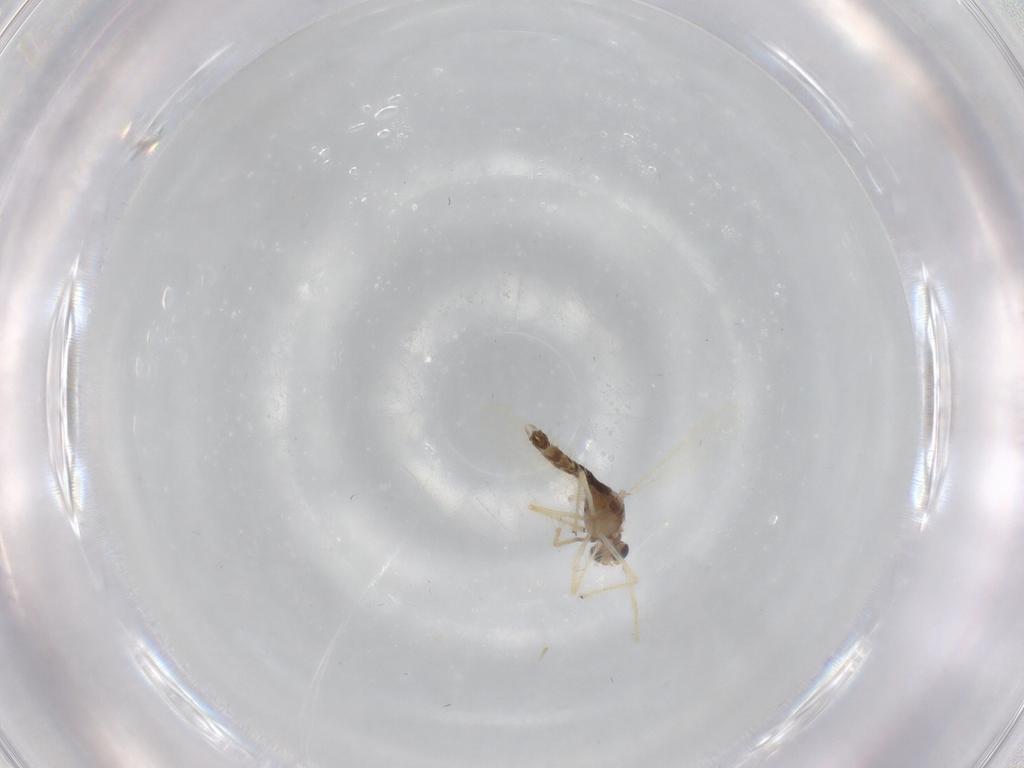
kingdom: Animalia
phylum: Arthropoda
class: Insecta
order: Diptera
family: Chironomidae
